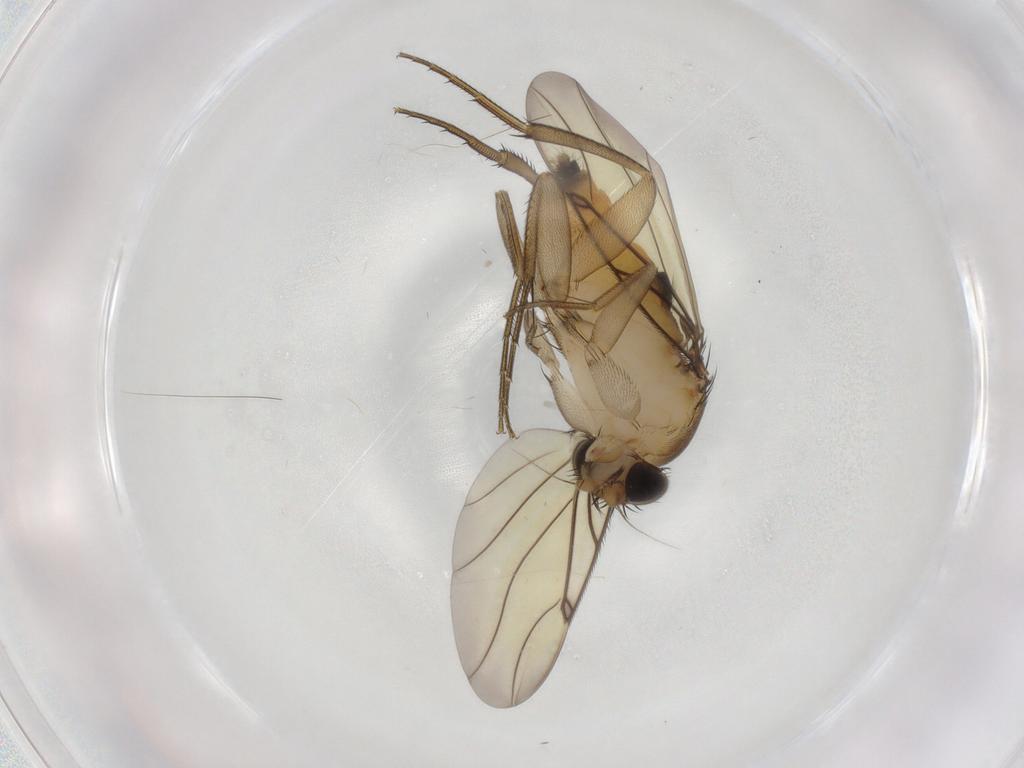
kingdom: Animalia
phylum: Arthropoda
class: Insecta
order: Diptera
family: Chironomidae
